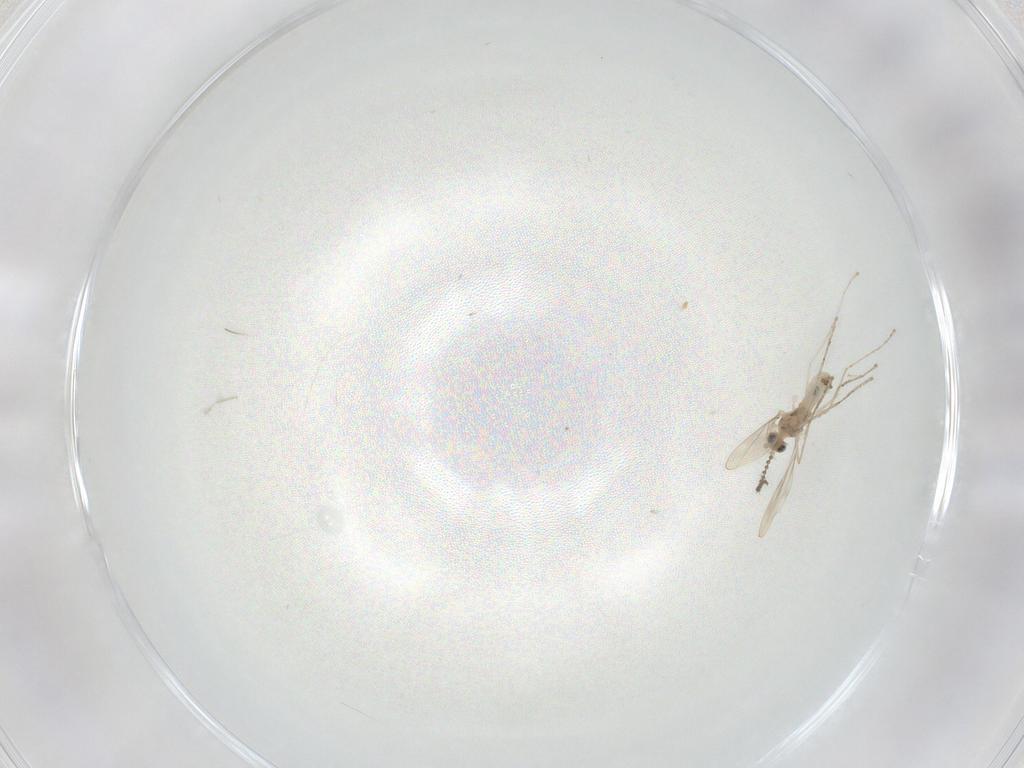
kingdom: Animalia
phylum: Arthropoda
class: Insecta
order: Diptera
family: Cecidomyiidae
